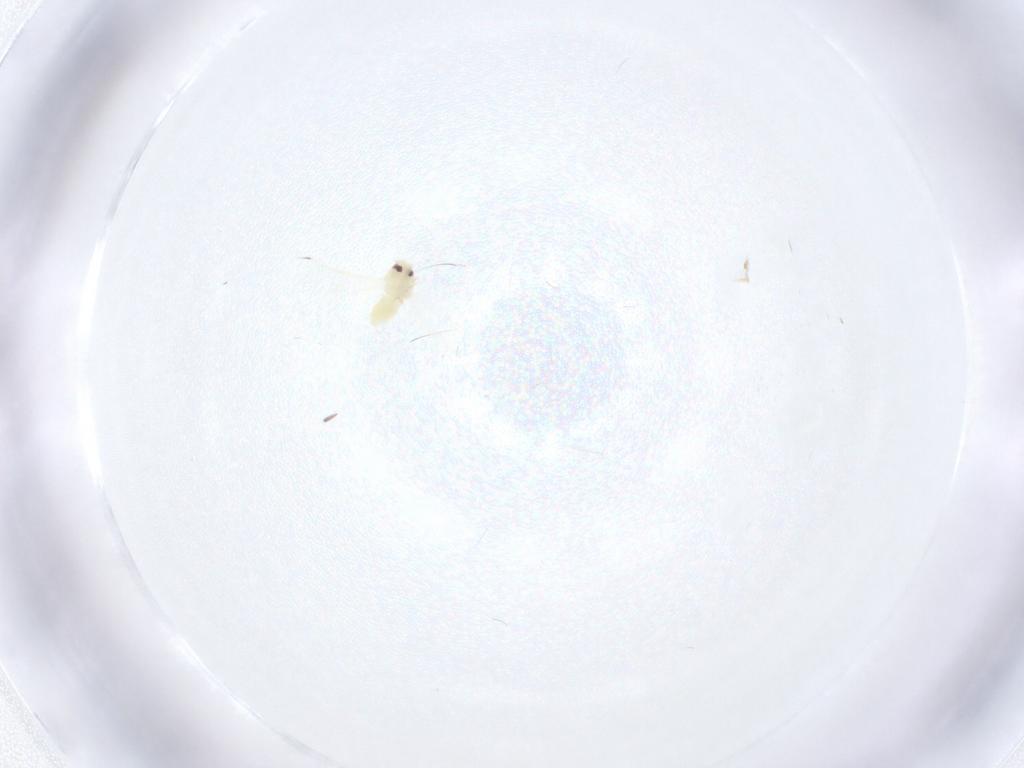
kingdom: Animalia
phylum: Arthropoda
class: Insecta
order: Hemiptera
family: Aleyrodidae
